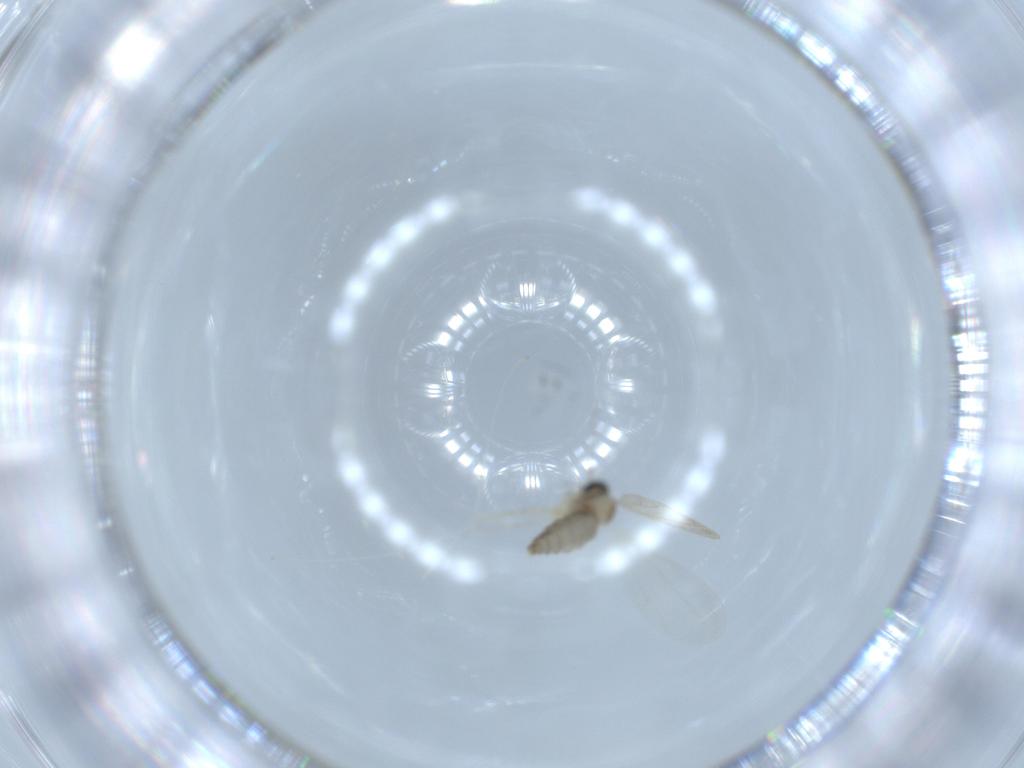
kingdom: Animalia
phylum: Arthropoda
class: Insecta
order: Diptera
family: Cecidomyiidae
